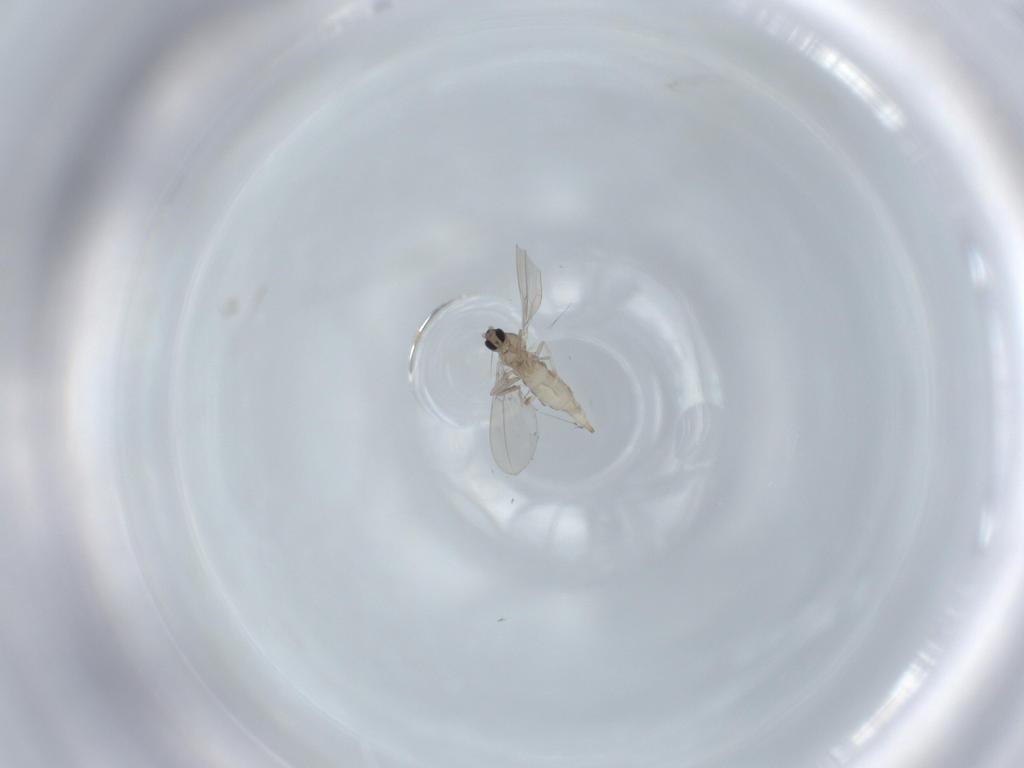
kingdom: Animalia
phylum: Arthropoda
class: Insecta
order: Diptera
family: Cecidomyiidae
